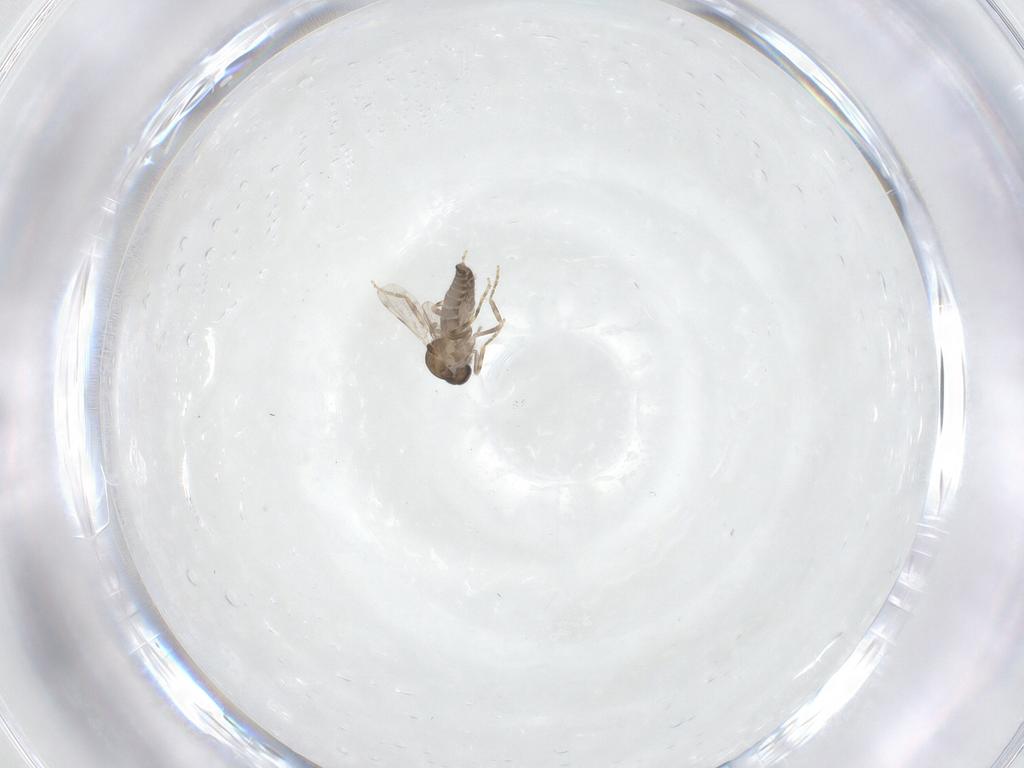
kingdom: Animalia
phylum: Arthropoda
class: Insecta
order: Diptera
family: Ceratopogonidae
